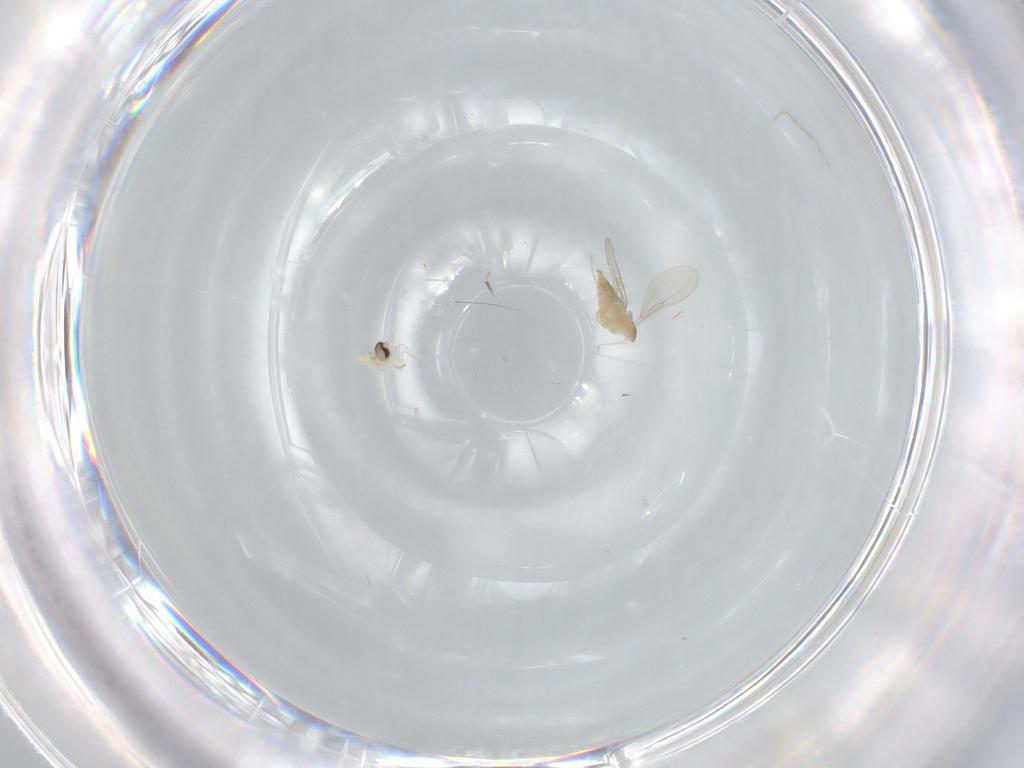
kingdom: Animalia
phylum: Arthropoda
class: Insecta
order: Diptera
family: Cecidomyiidae
